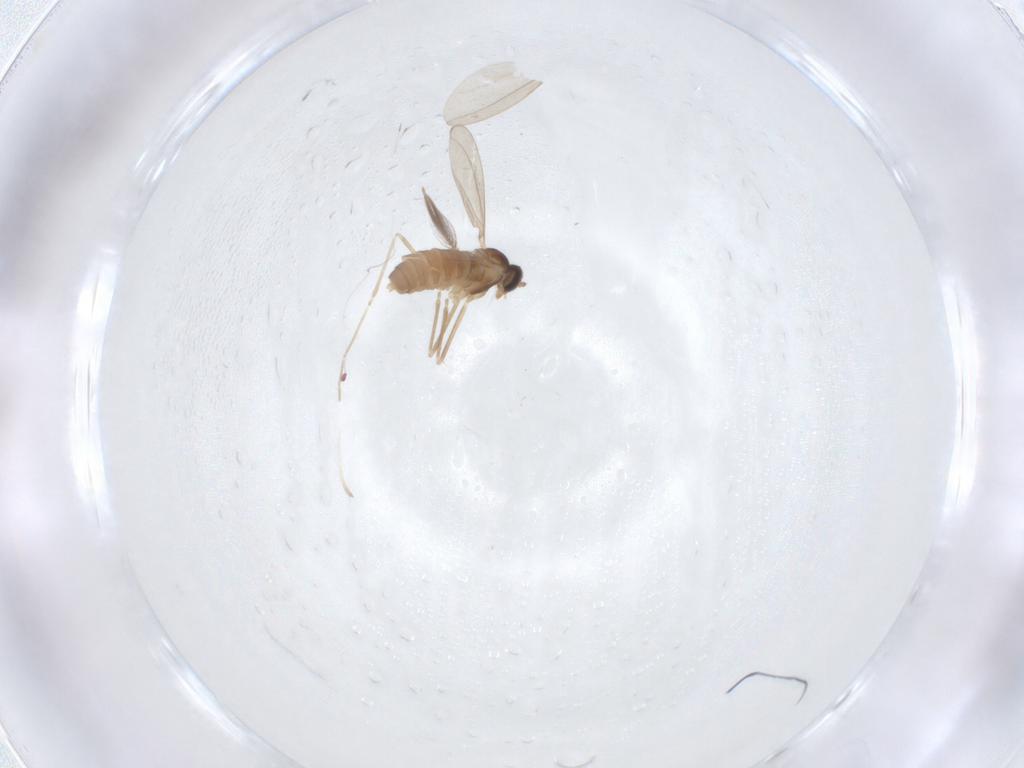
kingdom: Animalia
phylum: Arthropoda
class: Insecta
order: Diptera
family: Cecidomyiidae
